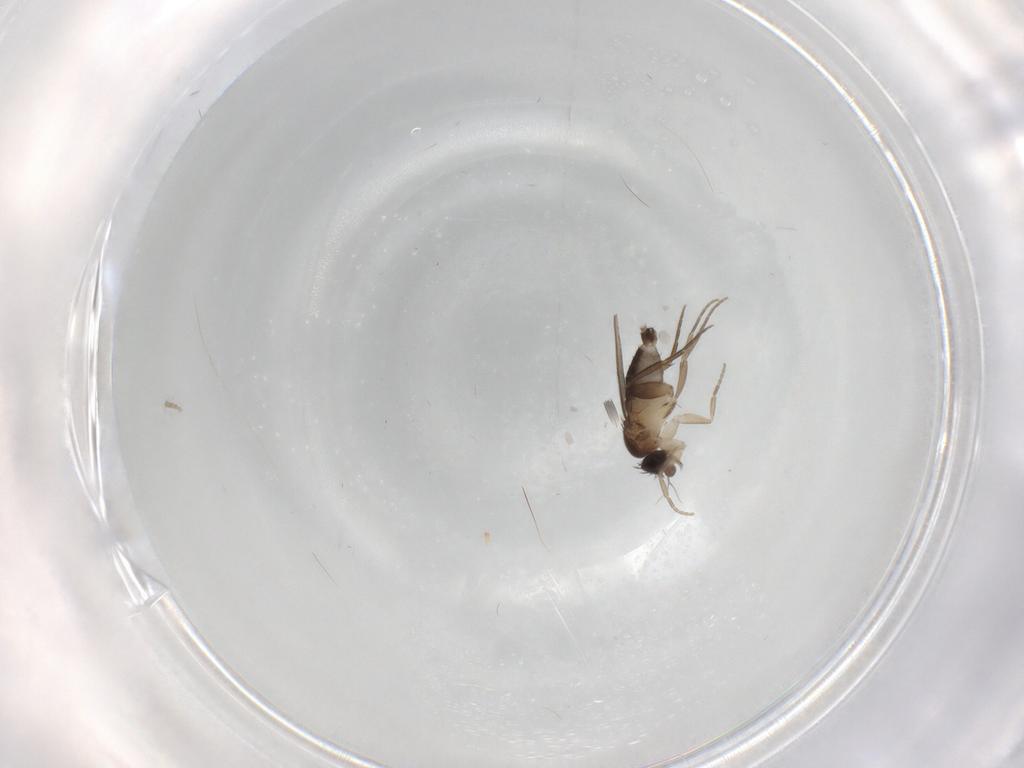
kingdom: Animalia
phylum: Arthropoda
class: Insecta
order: Diptera
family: Phoridae
